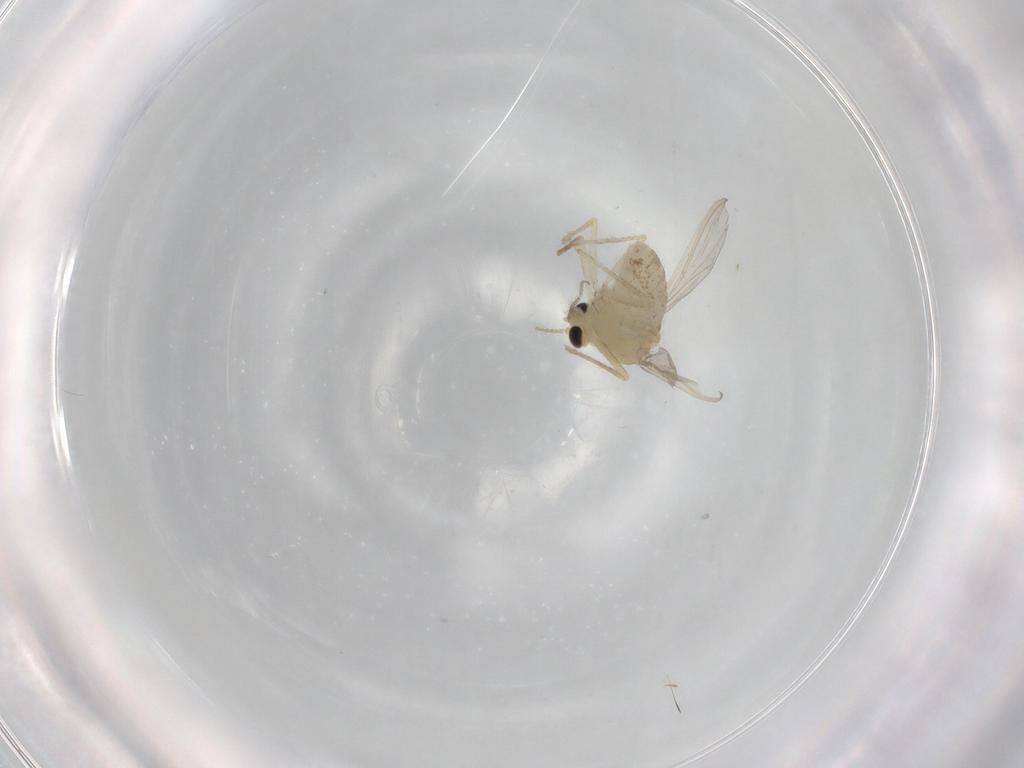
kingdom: Animalia
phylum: Arthropoda
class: Insecta
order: Diptera
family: Chironomidae
